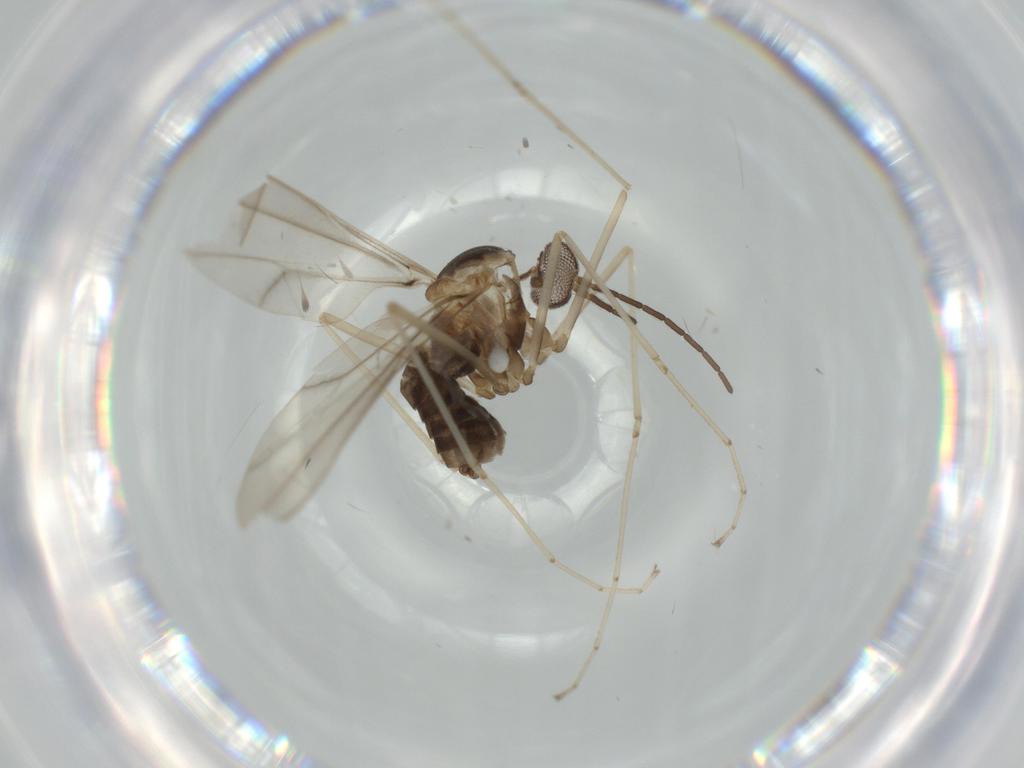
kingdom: Animalia
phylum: Arthropoda
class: Insecta
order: Diptera
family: Cecidomyiidae
